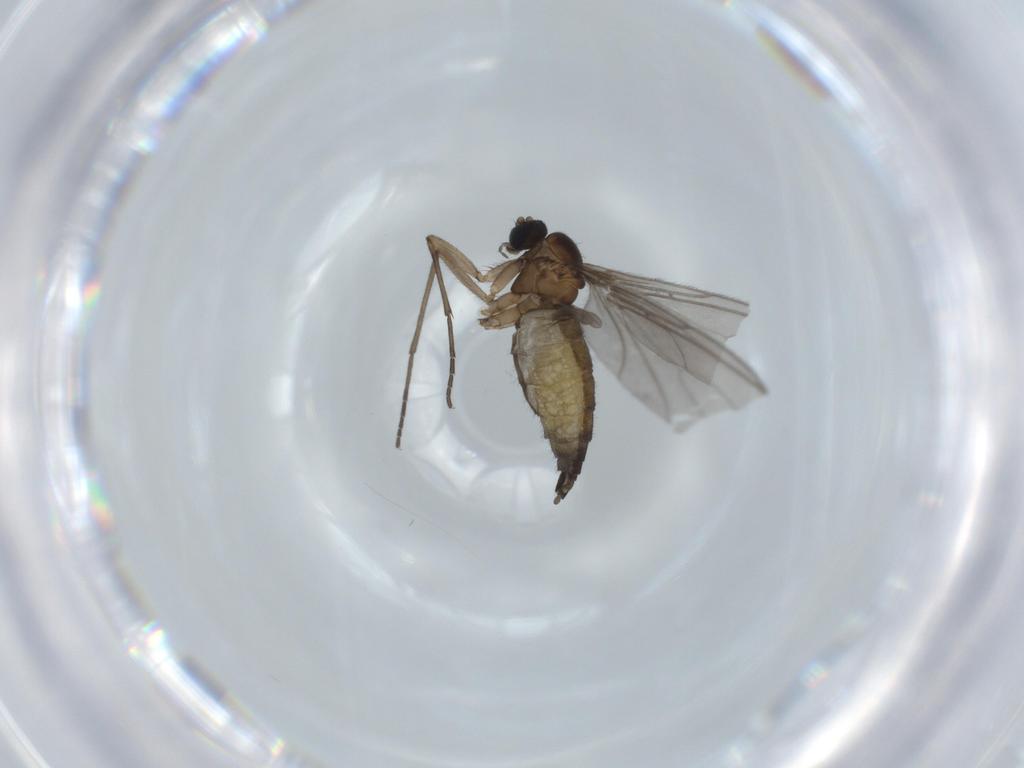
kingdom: Animalia
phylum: Arthropoda
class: Insecta
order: Diptera
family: Sciaridae
